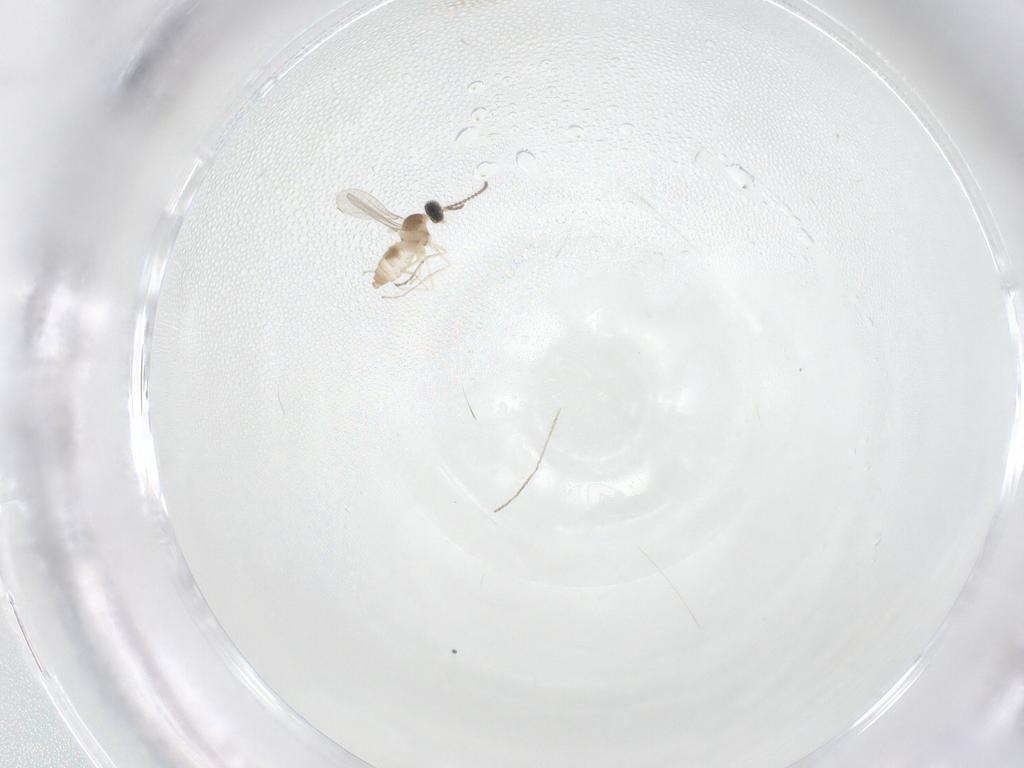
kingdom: Animalia
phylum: Arthropoda
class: Insecta
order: Diptera
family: Cecidomyiidae
